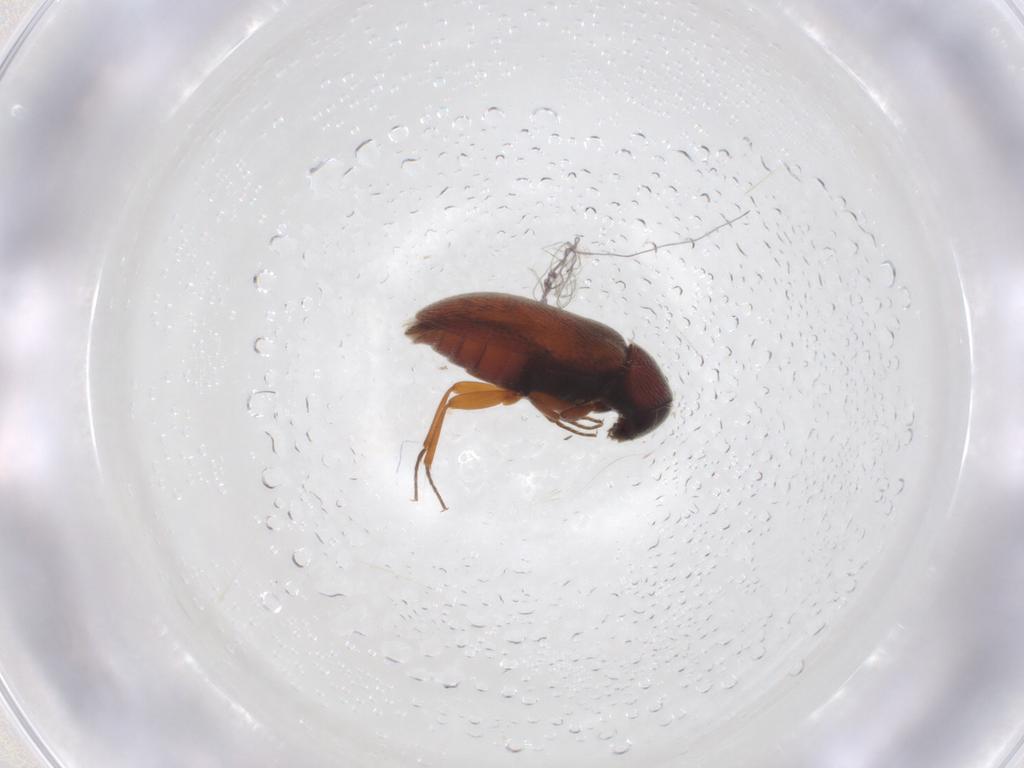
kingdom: Animalia
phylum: Arthropoda
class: Insecta
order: Coleoptera
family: Rhadalidae
